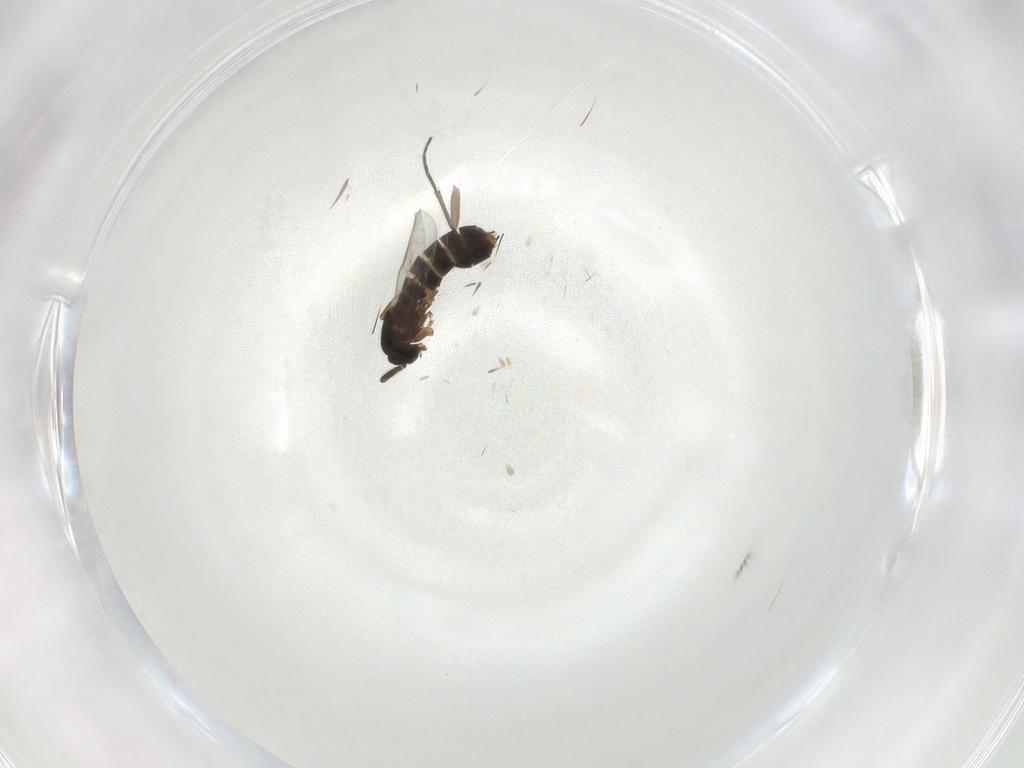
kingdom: Animalia
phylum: Arthropoda
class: Insecta
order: Diptera
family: Scatopsidae
